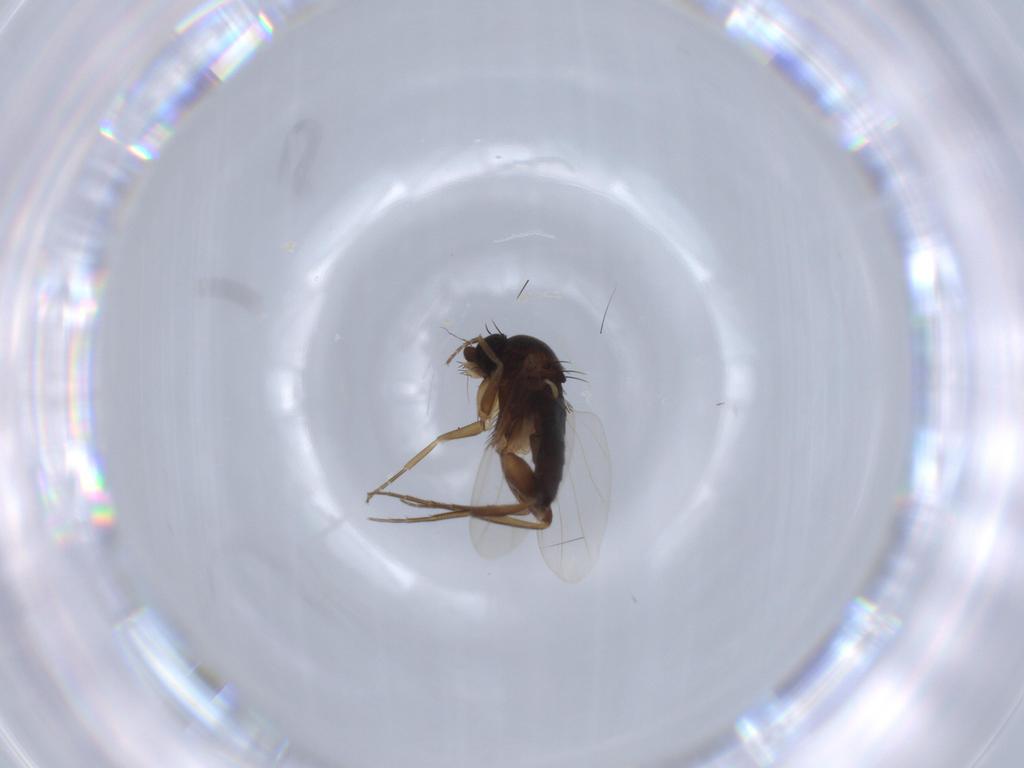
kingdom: Animalia
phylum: Arthropoda
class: Insecta
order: Diptera
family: Phoridae
